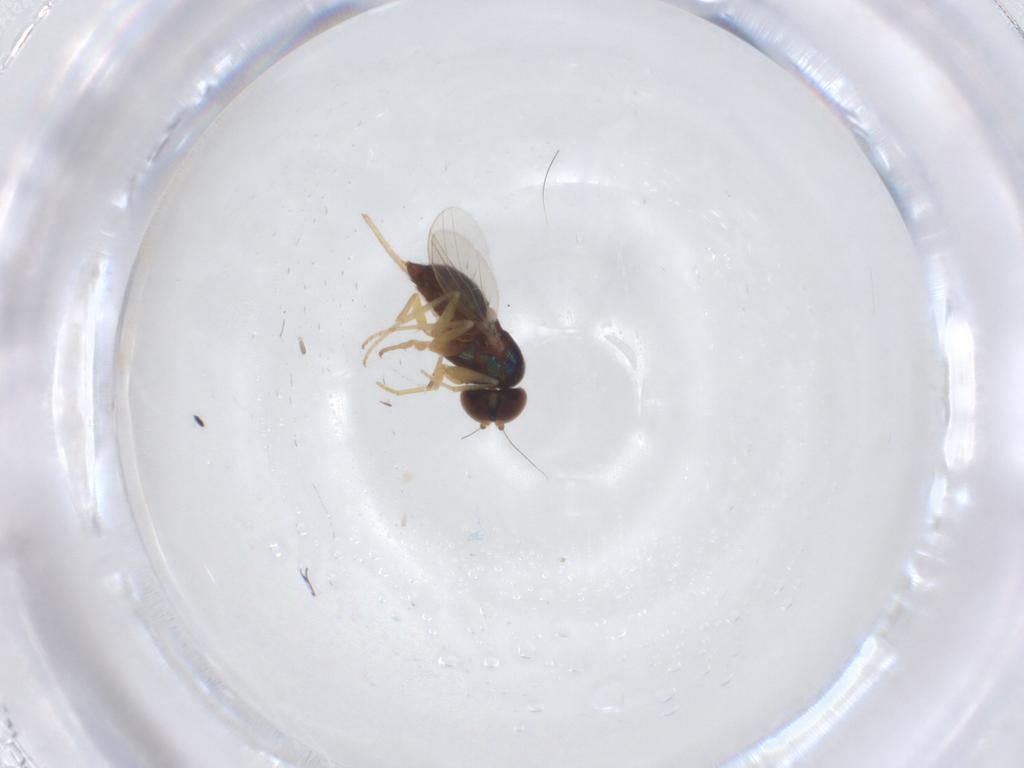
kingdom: Animalia
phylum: Arthropoda
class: Insecta
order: Diptera
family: Dolichopodidae
